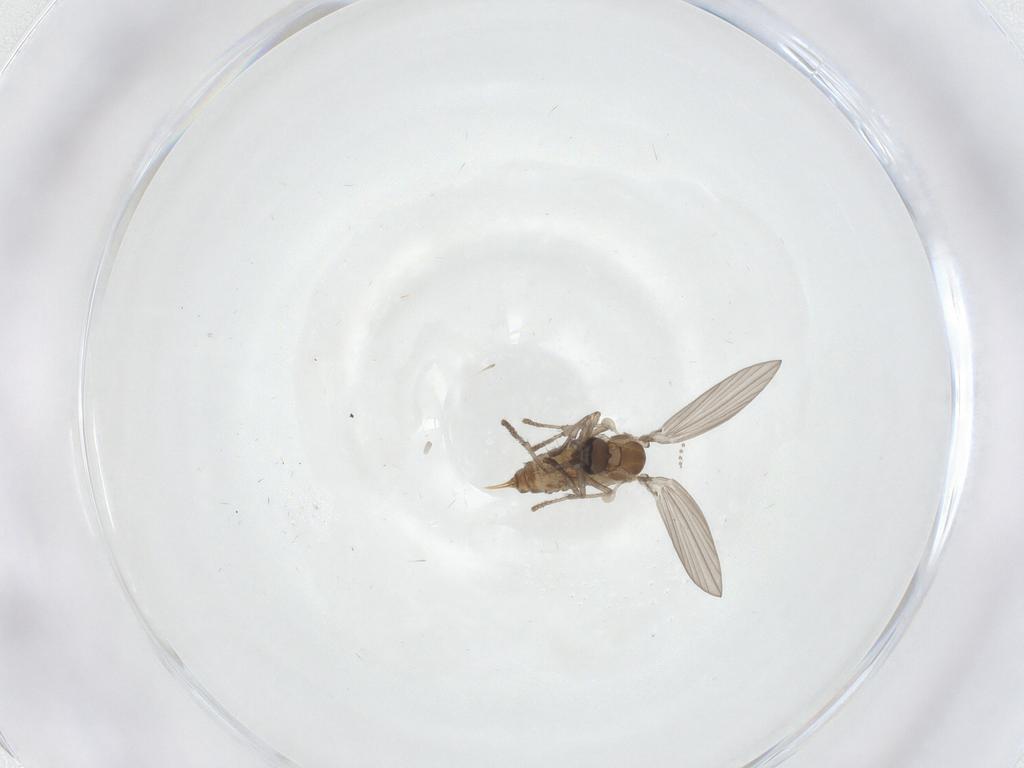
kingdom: Animalia
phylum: Arthropoda
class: Insecta
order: Diptera
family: Psychodidae
